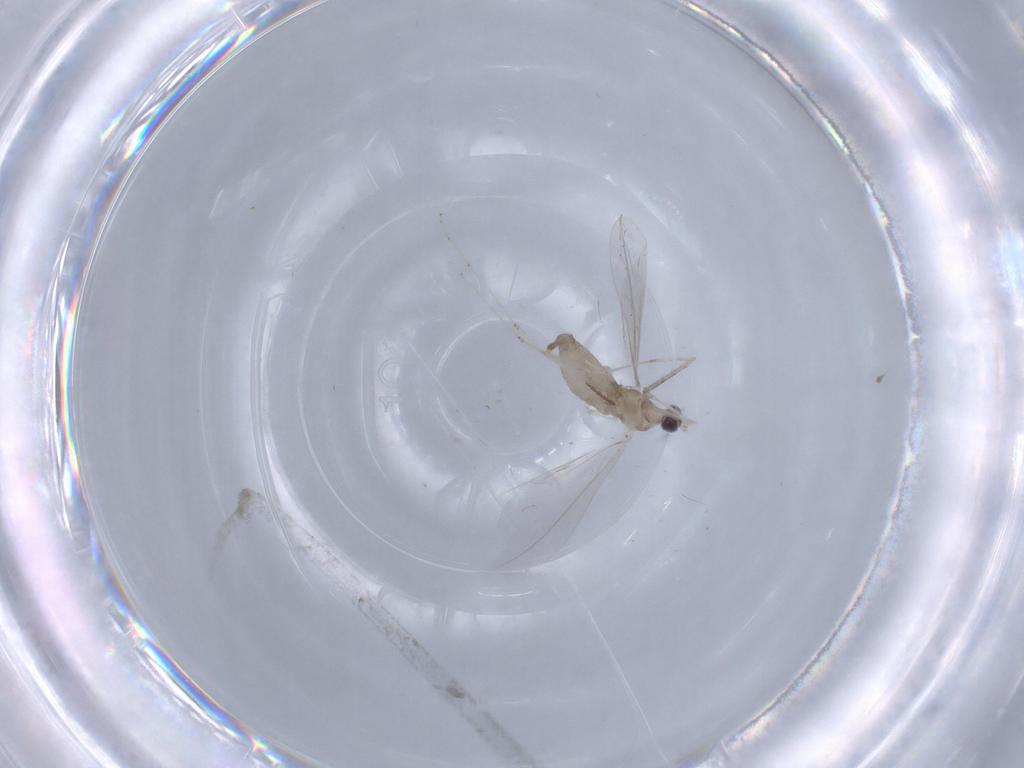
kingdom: Animalia
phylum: Arthropoda
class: Insecta
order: Diptera
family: Cecidomyiidae
